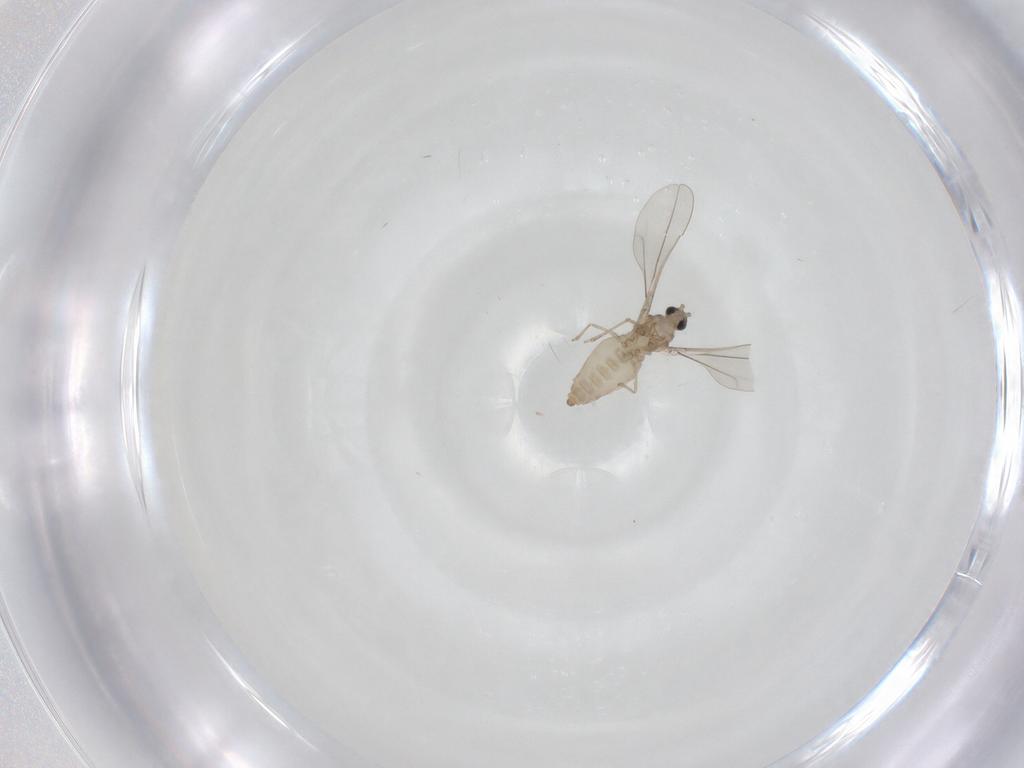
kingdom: Animalia
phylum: Arthropoda
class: Insecta
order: Diptera
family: Cecidomyiidae
